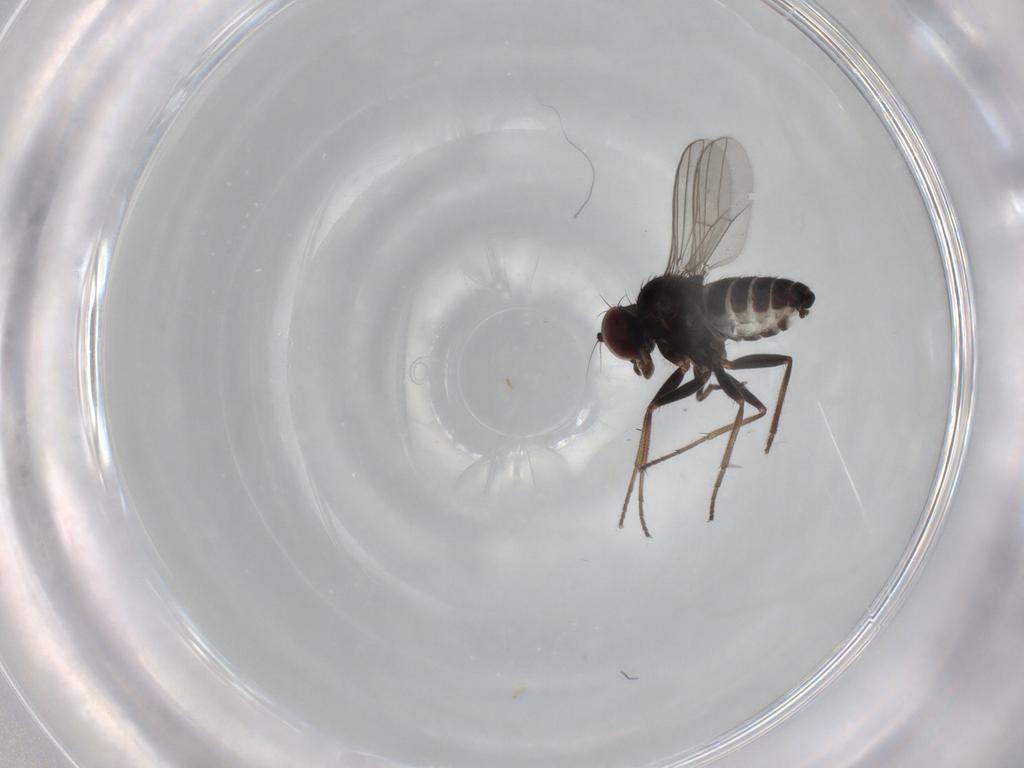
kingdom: Animalia
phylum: Arthropoda
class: Insecta
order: Diptera
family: Dolichopodidae
